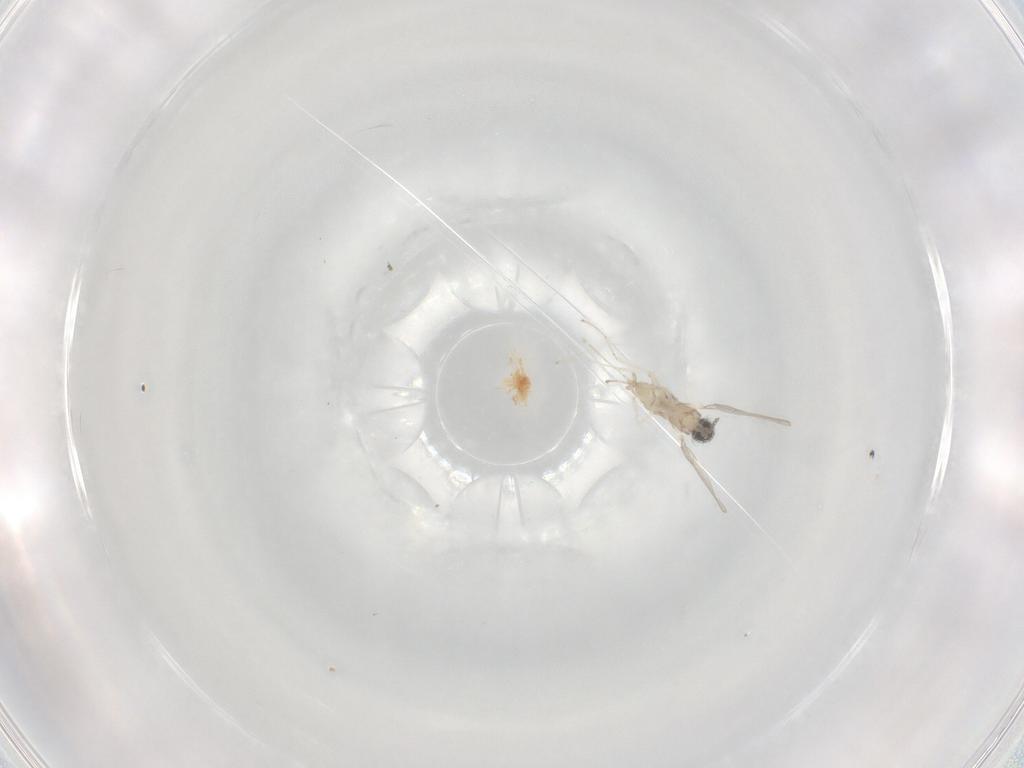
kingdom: Animalia
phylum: Arthropoda
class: Insecta
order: Diptera
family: Cecidomyiidae
